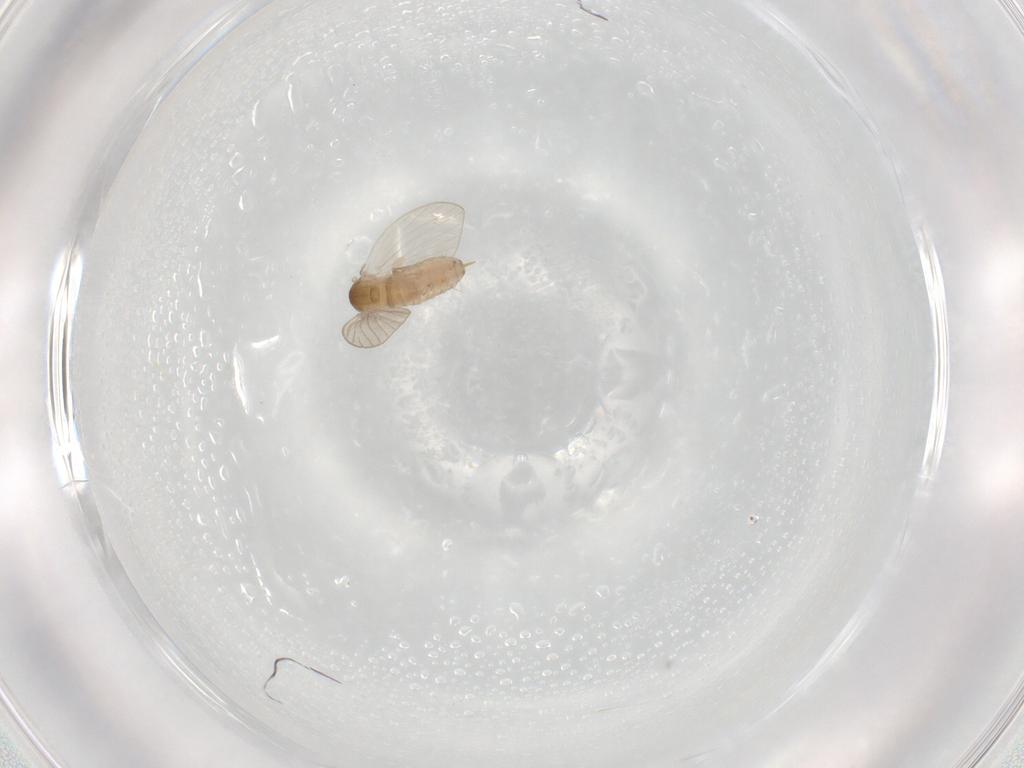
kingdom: Animalia
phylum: Arthropoda
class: Insecta
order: Diptera
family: Psychodidae
